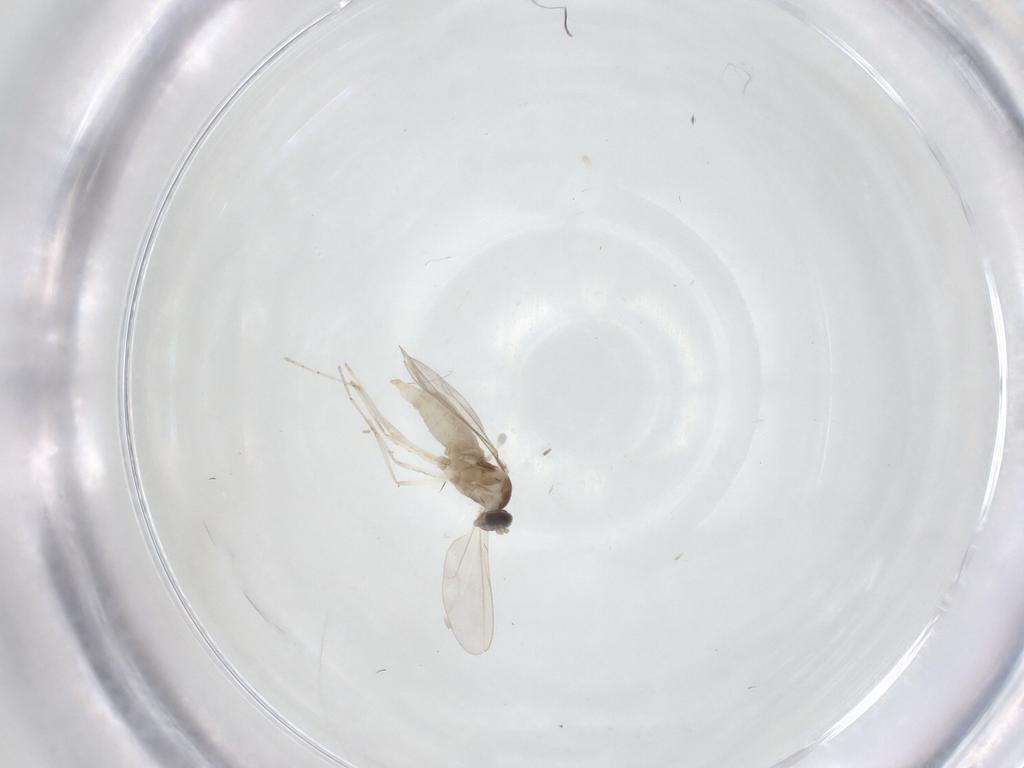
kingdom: Animalia
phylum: Arthropoda
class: Insecta
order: Diptera
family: Cecidomyiidae
